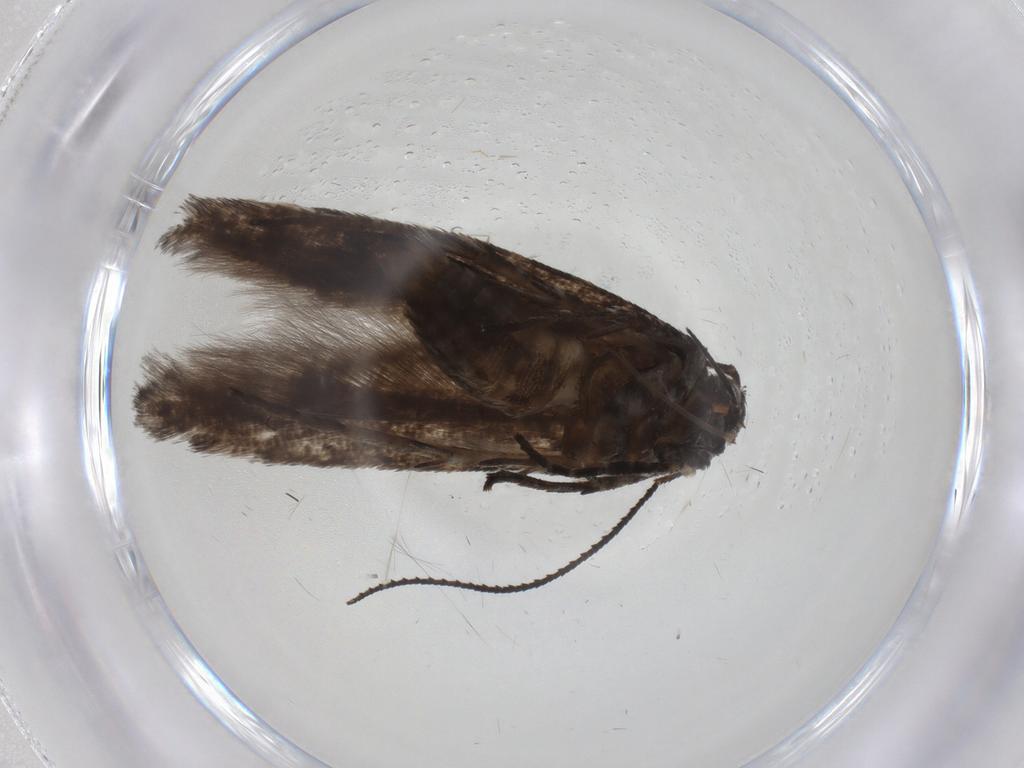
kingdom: Animalia
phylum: Arthropoda
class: Insecta
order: Lepidoptera
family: Gelechiidae
